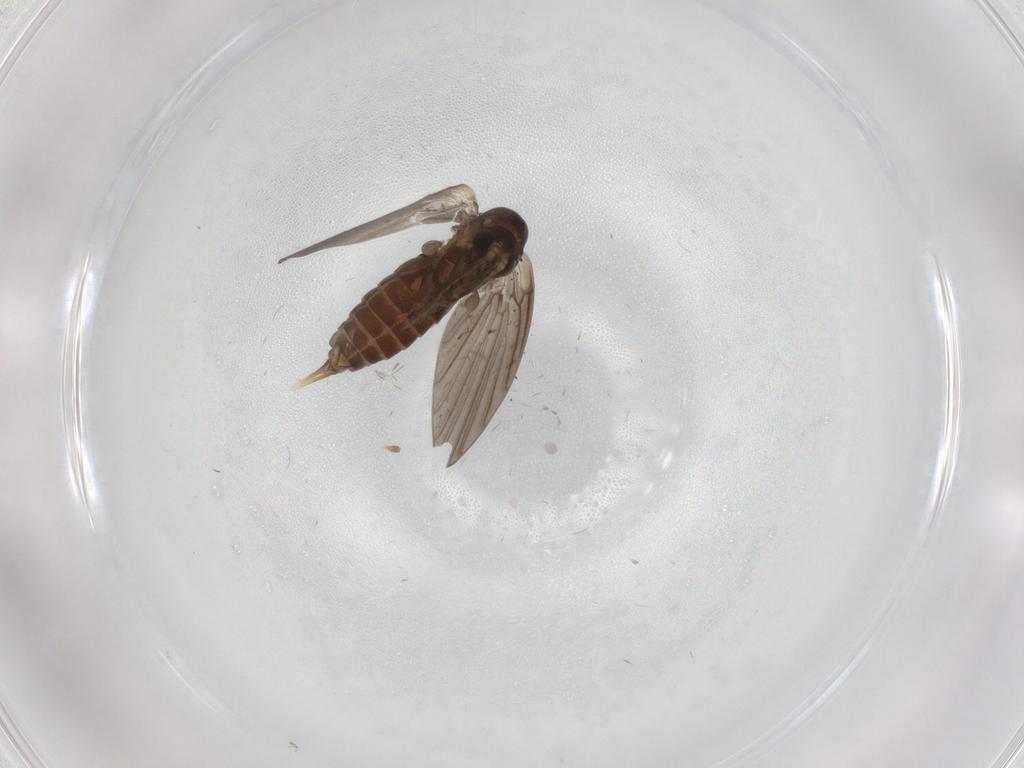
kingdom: Animalia
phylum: Arthropoda
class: Insecta
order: Diptera
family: Psychodidae
